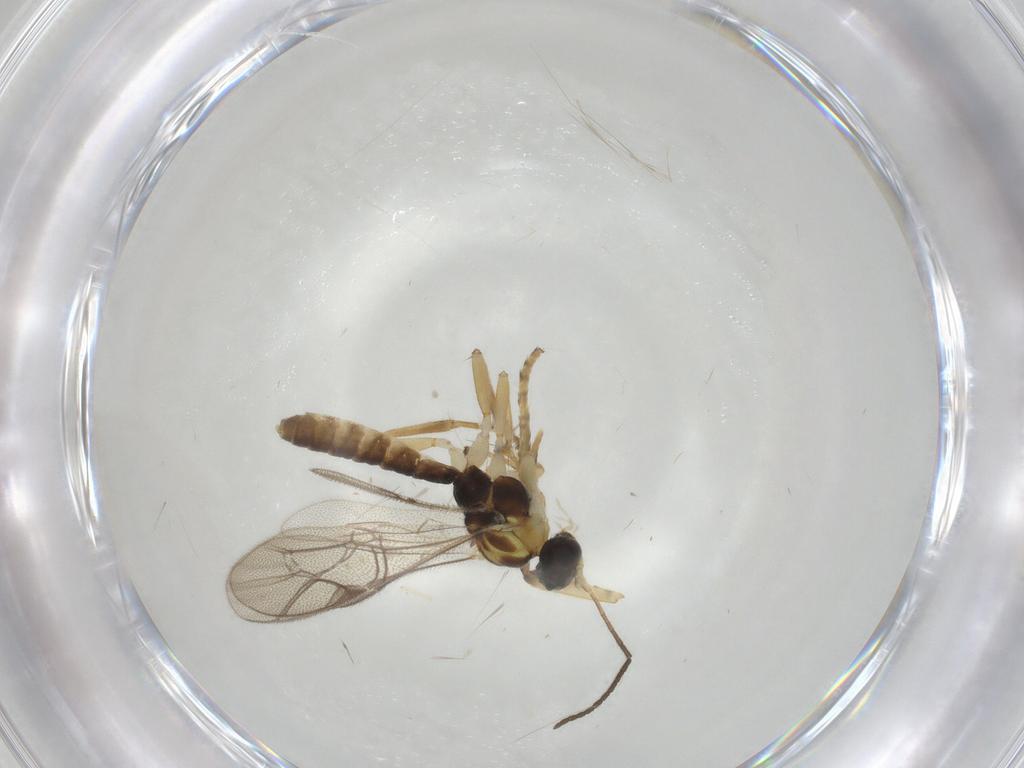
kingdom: Animalia
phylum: Arthropoda
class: Insecta
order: Hymenoptera
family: Ichneumonidae
